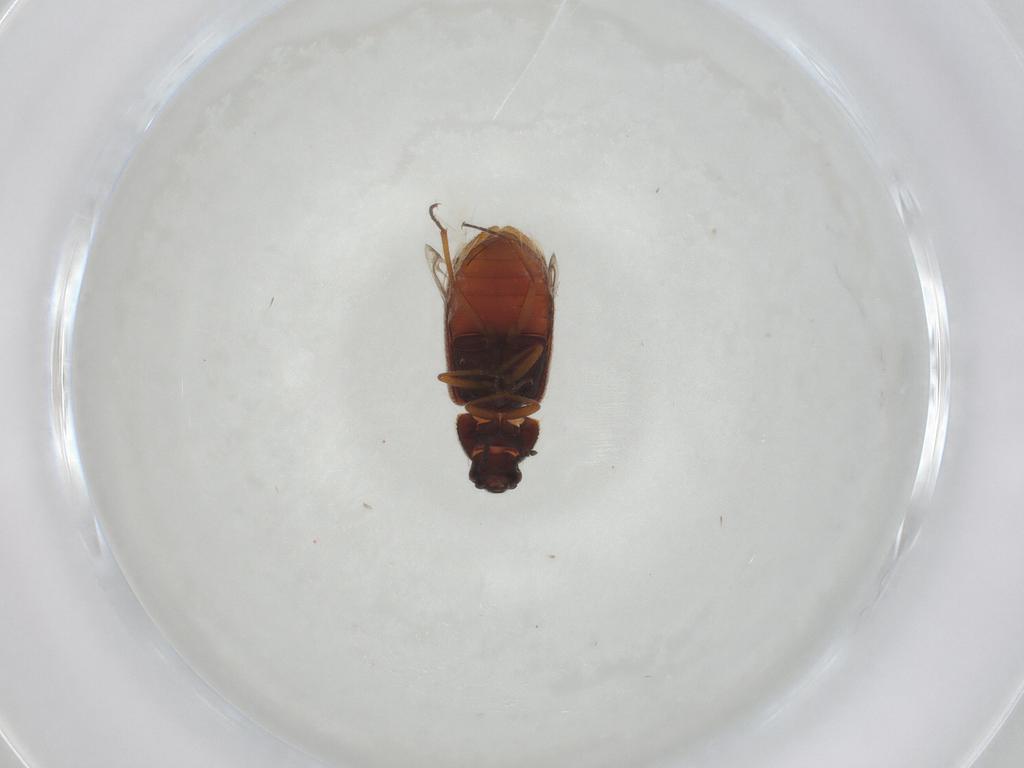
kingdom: Animalia
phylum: Arthropoda
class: Insecta
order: Coleoptera
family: Rhadalidae
